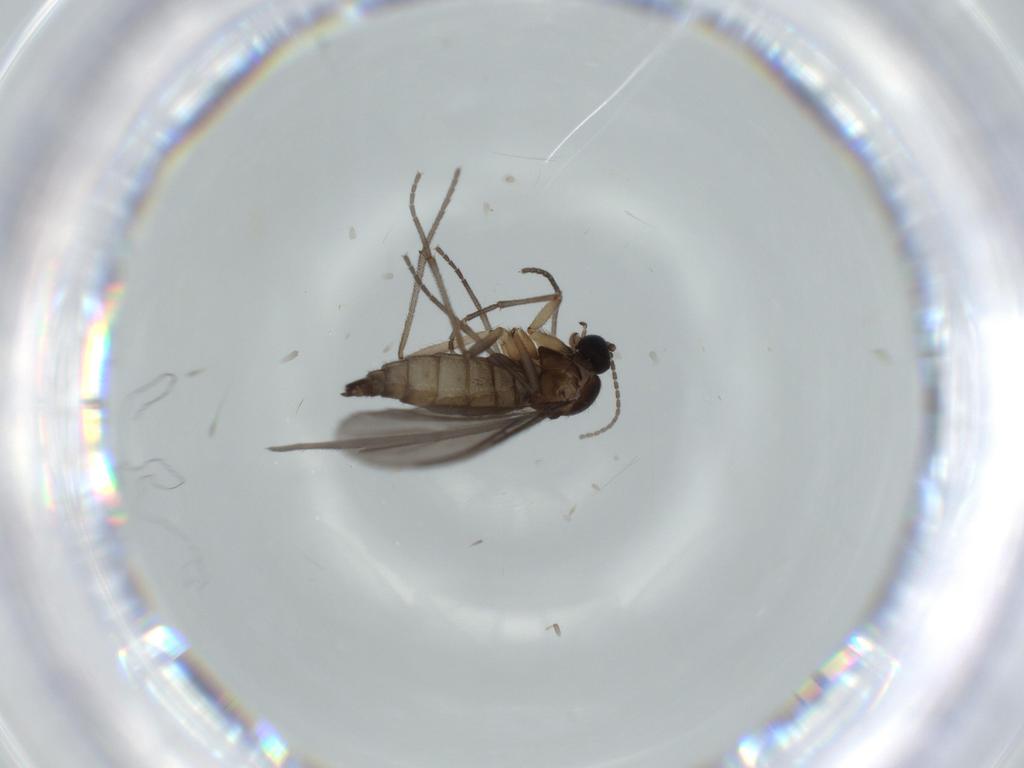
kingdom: Animalia
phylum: Arthropoda
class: Insecta
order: Diptera
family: Sciaridae
